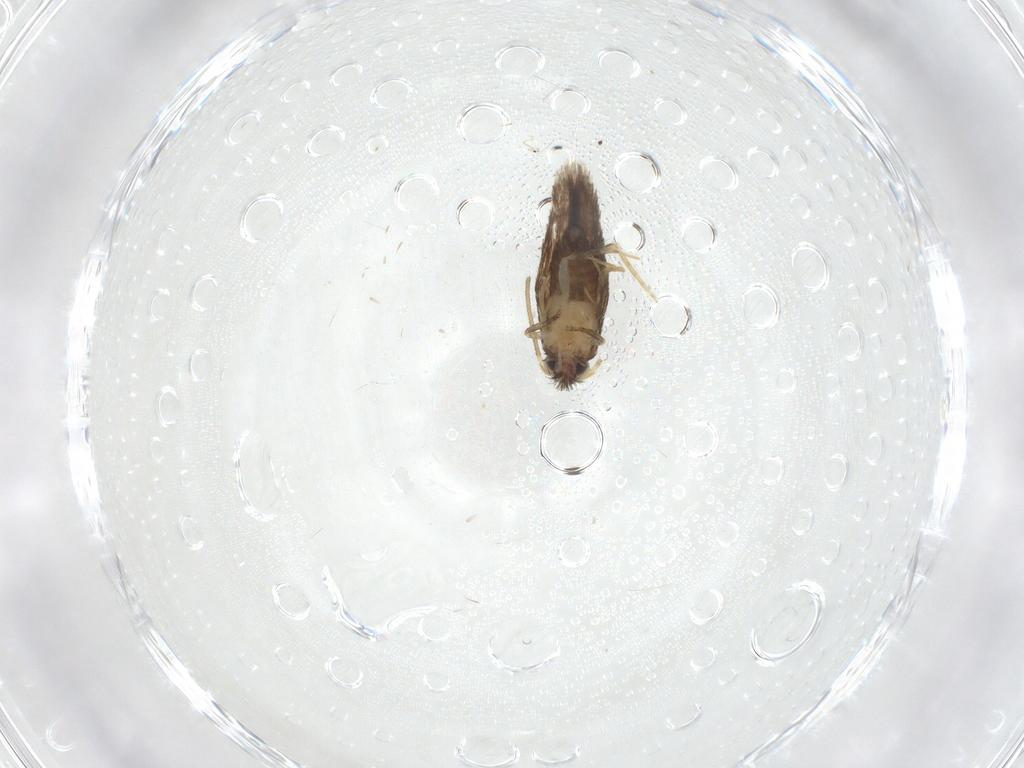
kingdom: Animalia
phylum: Arthropoda
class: Insecta
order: Lepidoptera
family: Nepticulidae
